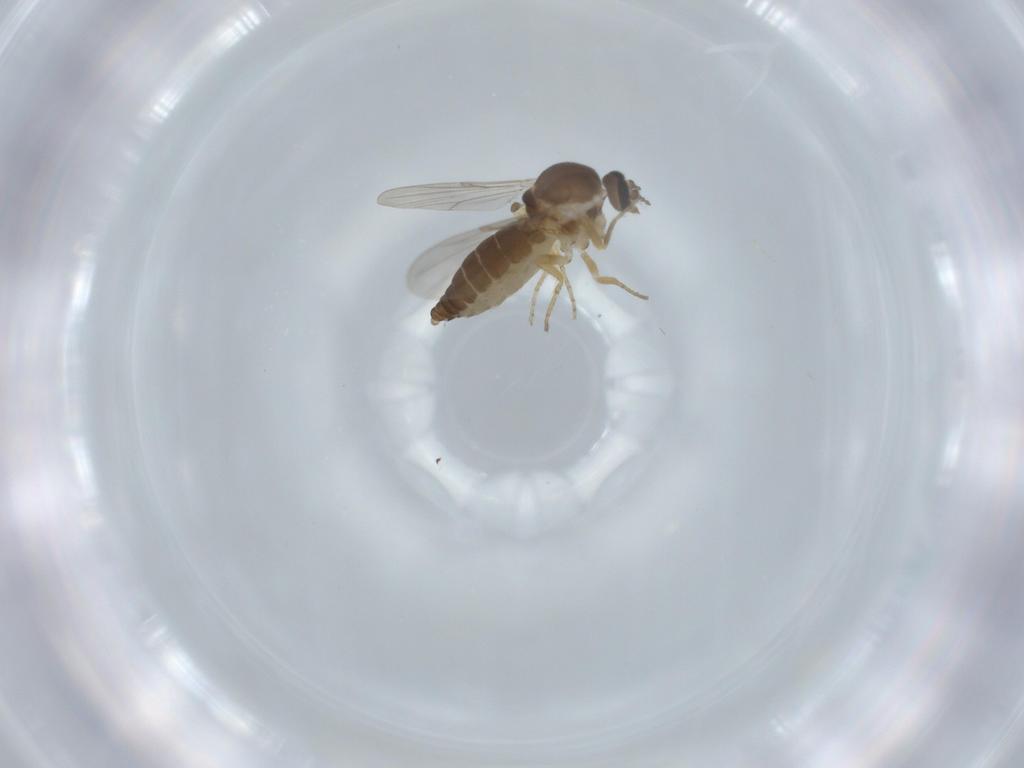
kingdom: Animalia
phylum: Arthropoda
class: Insecta
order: Diptera
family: Ceratopogonidae
